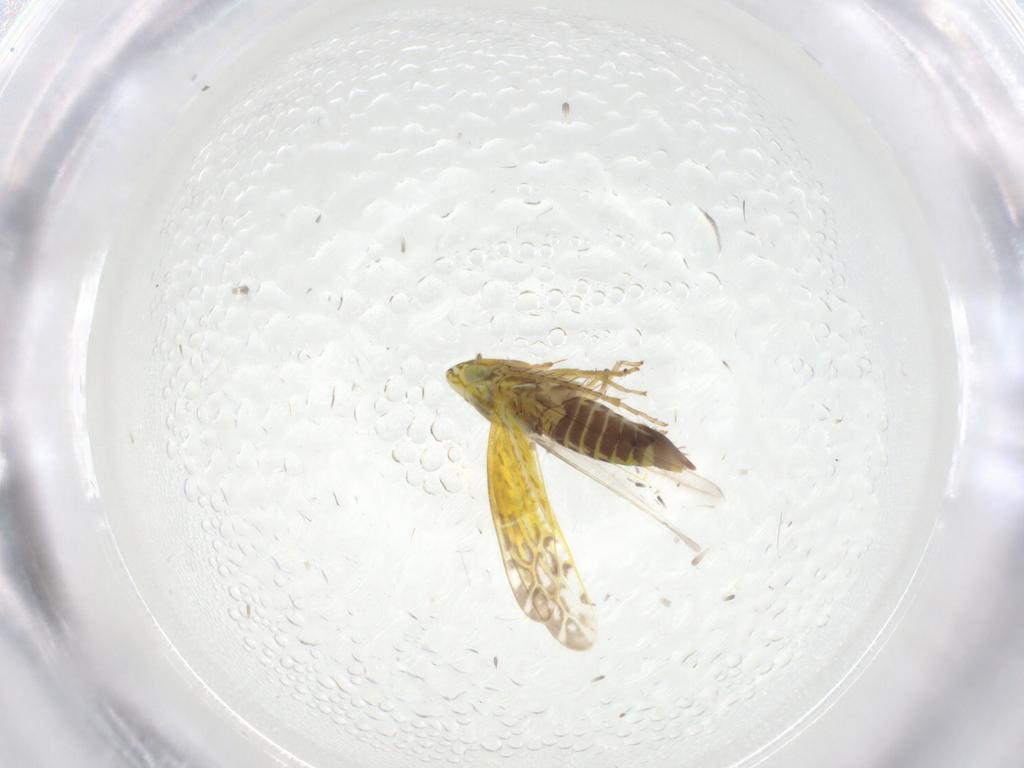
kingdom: Animalia
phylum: Arthropoda
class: Insecta
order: Hemiptera
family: Cicadellidae
